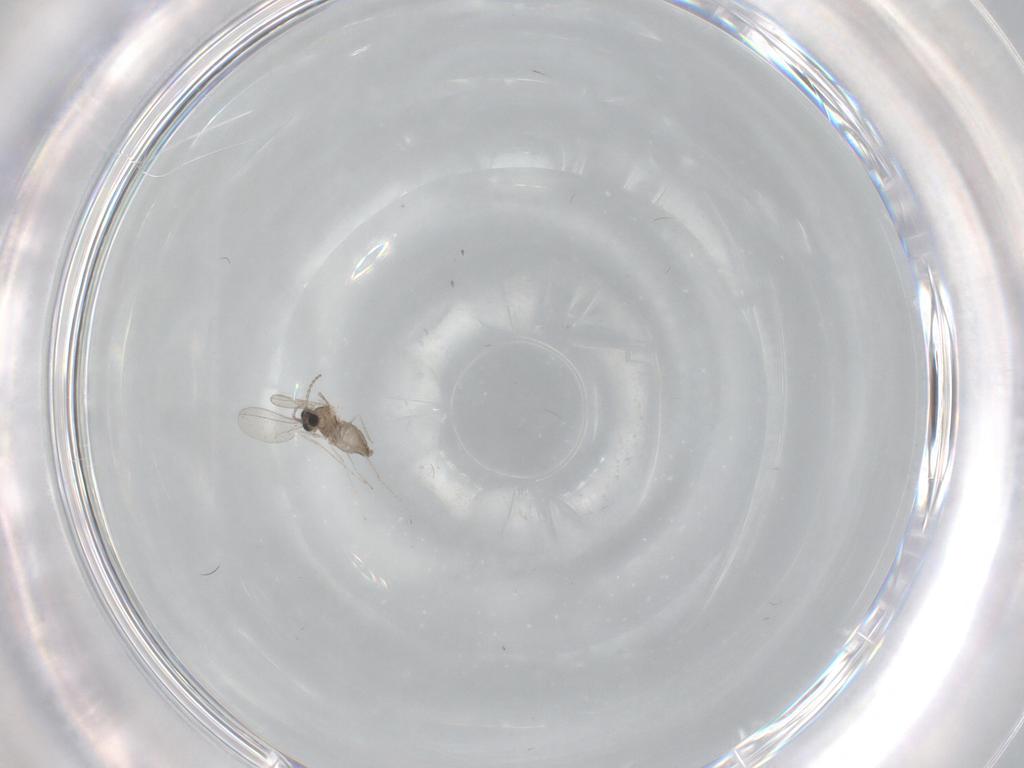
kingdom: Animalia
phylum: Arthropoda
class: Insecta
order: Diptera
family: Cecidomyiidae
